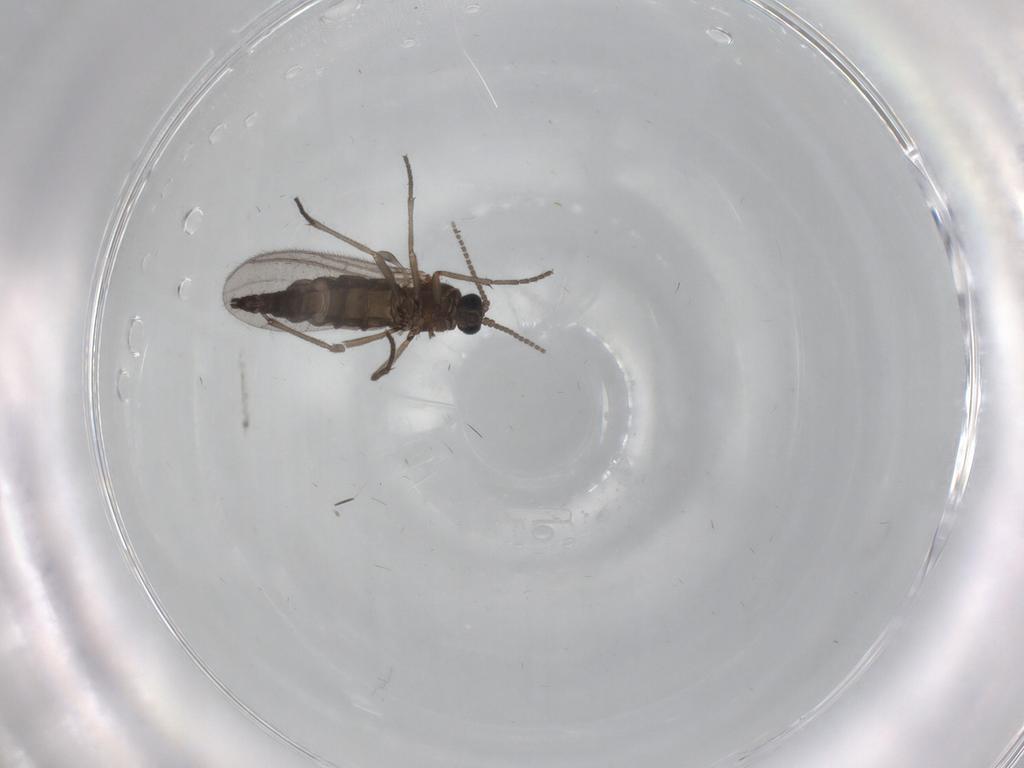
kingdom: Animalia
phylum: Arthropoda
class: Insecta
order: Diptera
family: Sciaridae
